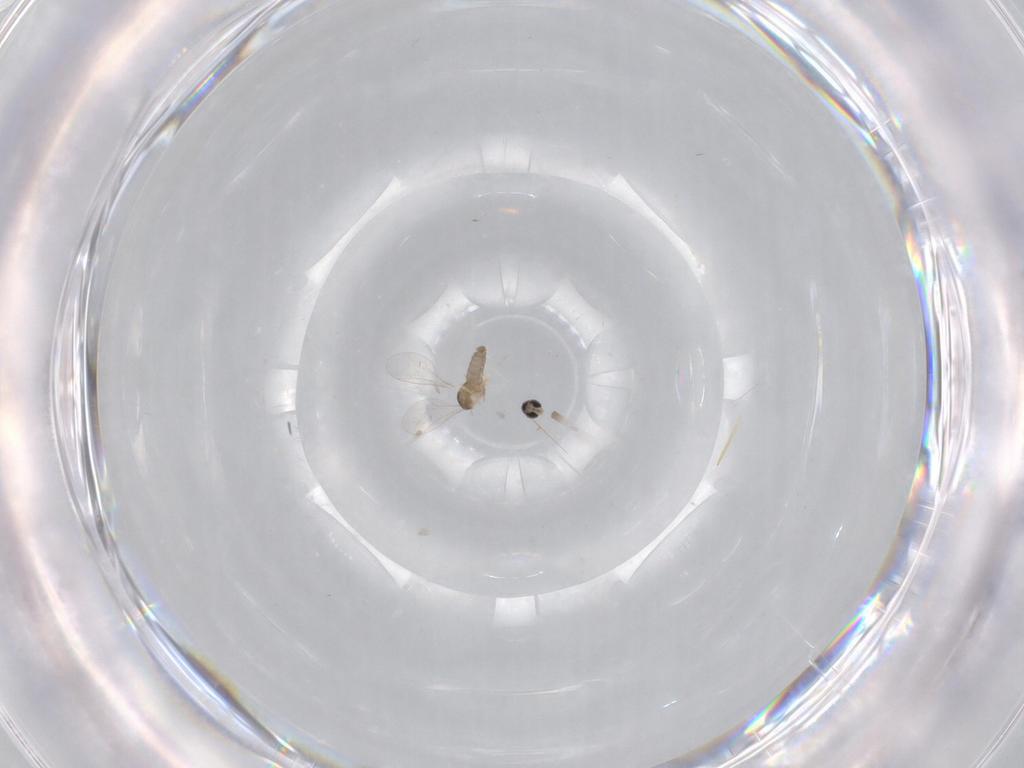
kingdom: Animalia
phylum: Arthropoda
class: Insecta
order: Diptera
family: Cecidomyiidae
